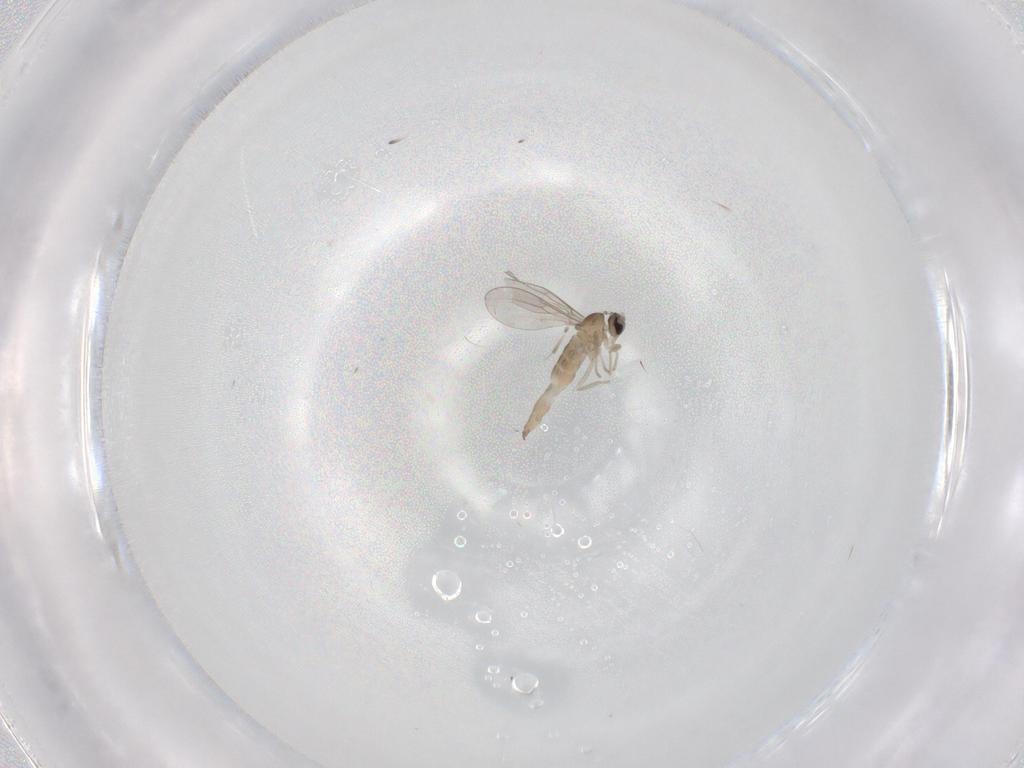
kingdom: Animalia
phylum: Arthropoda
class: Insecta
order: Diptera
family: Cecidomyiidae
